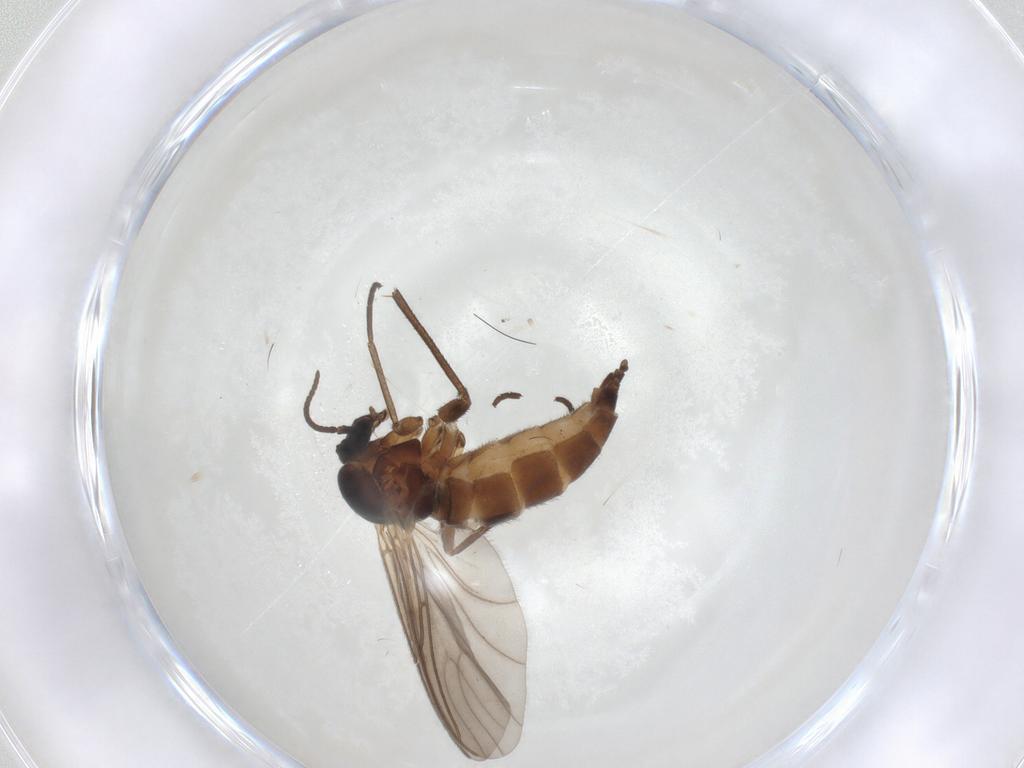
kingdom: Animalia
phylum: Arthropoda
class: Insecta
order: Diptera
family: Sciaridae
